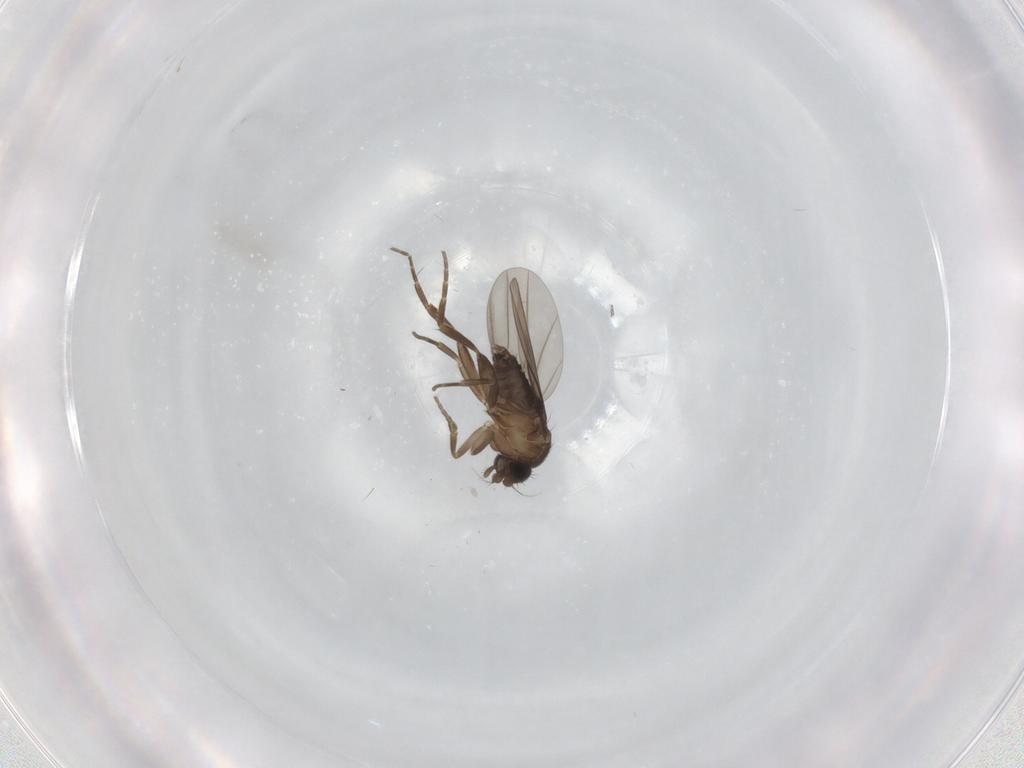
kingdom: Animalia
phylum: Arthropoda
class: Insecta
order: Diptera
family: Phoridae
